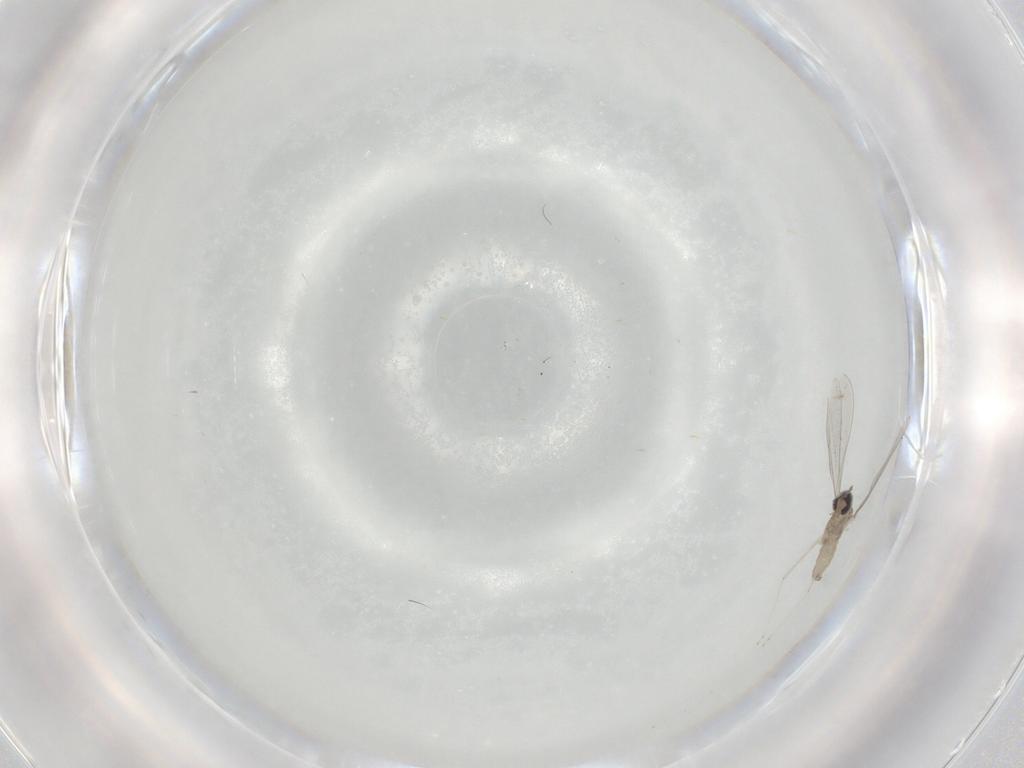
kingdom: Animalia
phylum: Arthropoda
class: Insecta
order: Diptera
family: Cecidomyiidae
